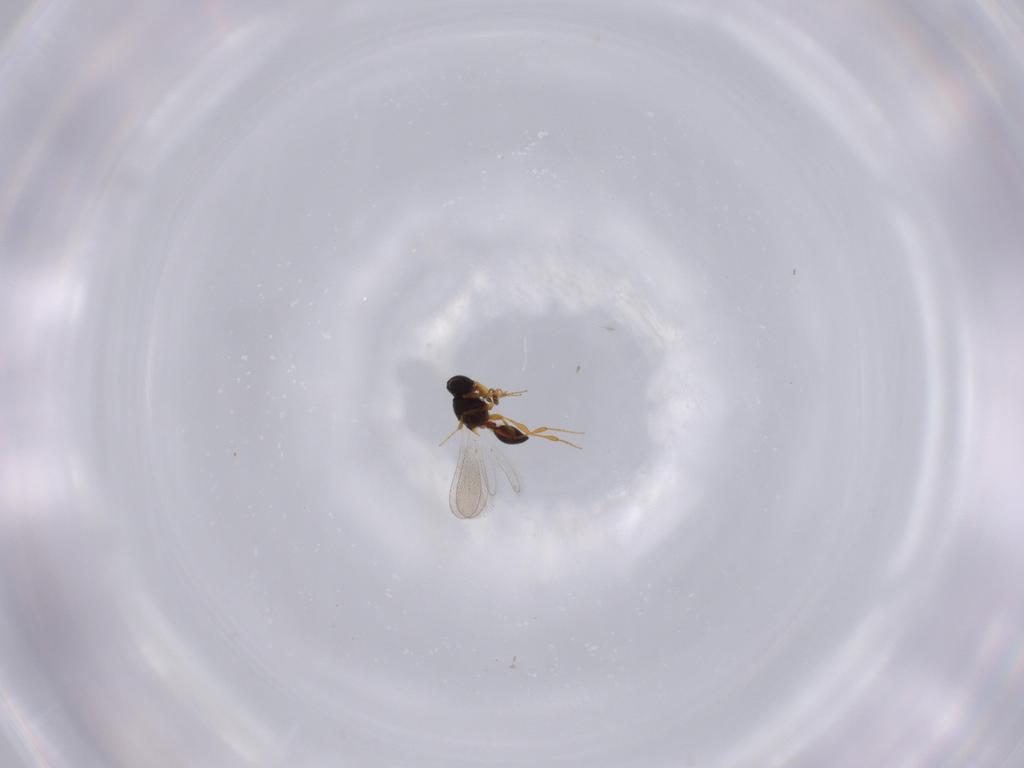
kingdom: Animalia
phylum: Arthropoda
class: Insecta
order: Hymenoptera
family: Platygastridae
